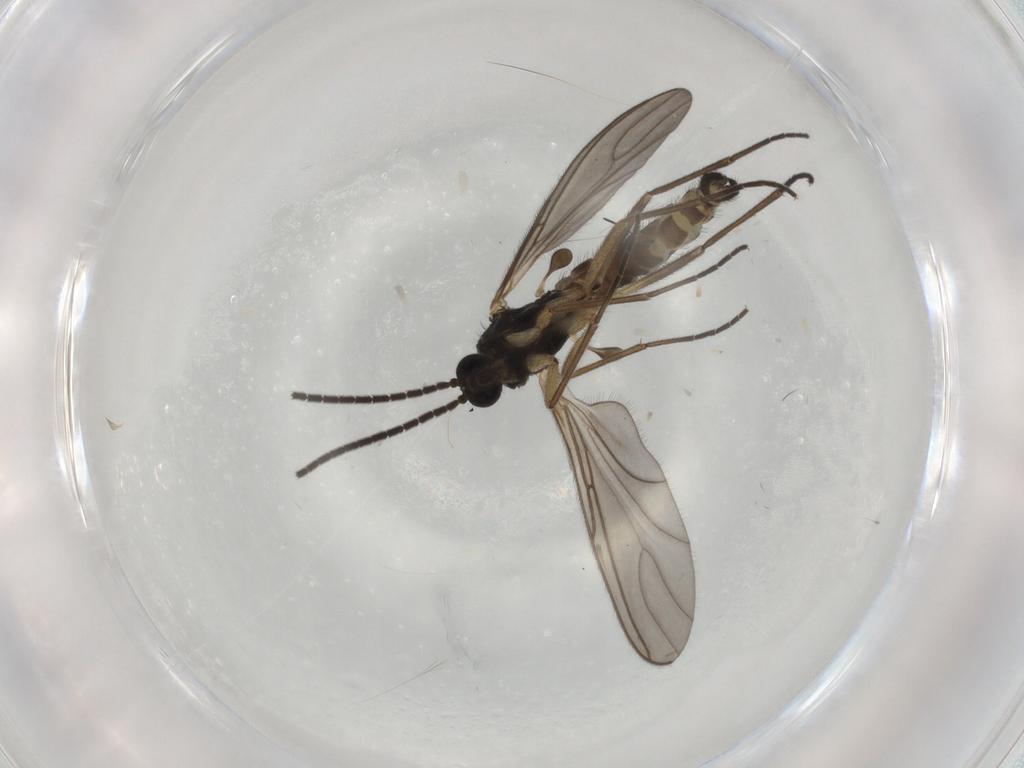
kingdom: Animalia
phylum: Arthropoda
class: Insecta
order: Diptera
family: Sciaridae
